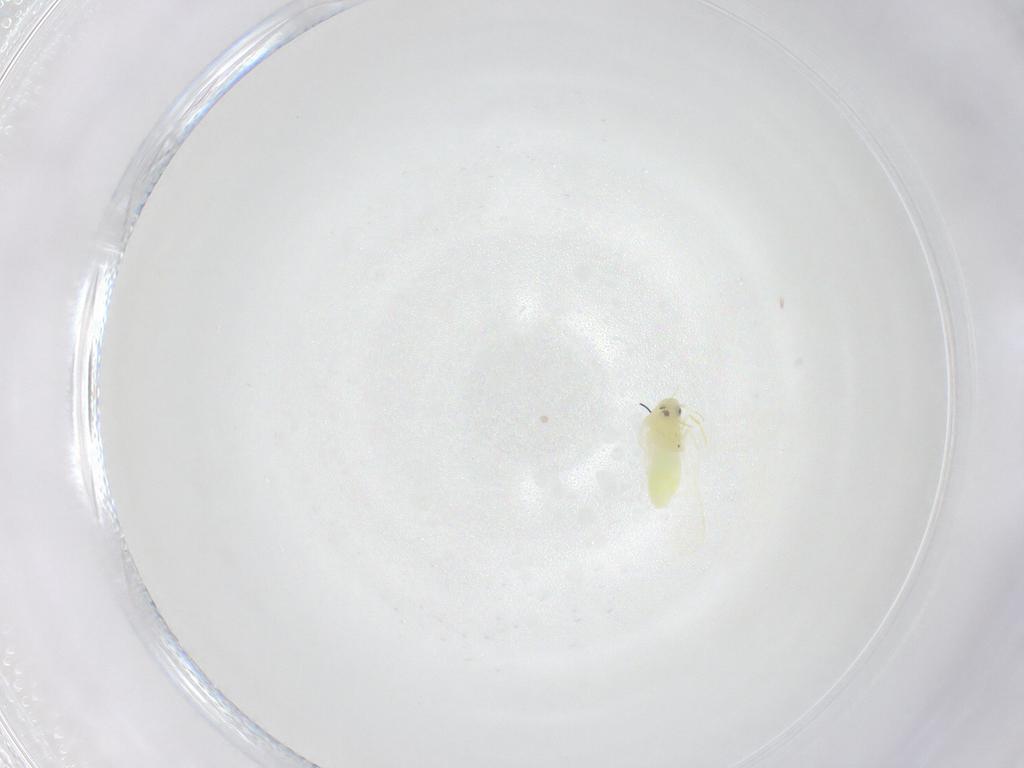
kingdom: Animalia
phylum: Arthropoda
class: Insecta
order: Hemiptera
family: Aleyrodidae
